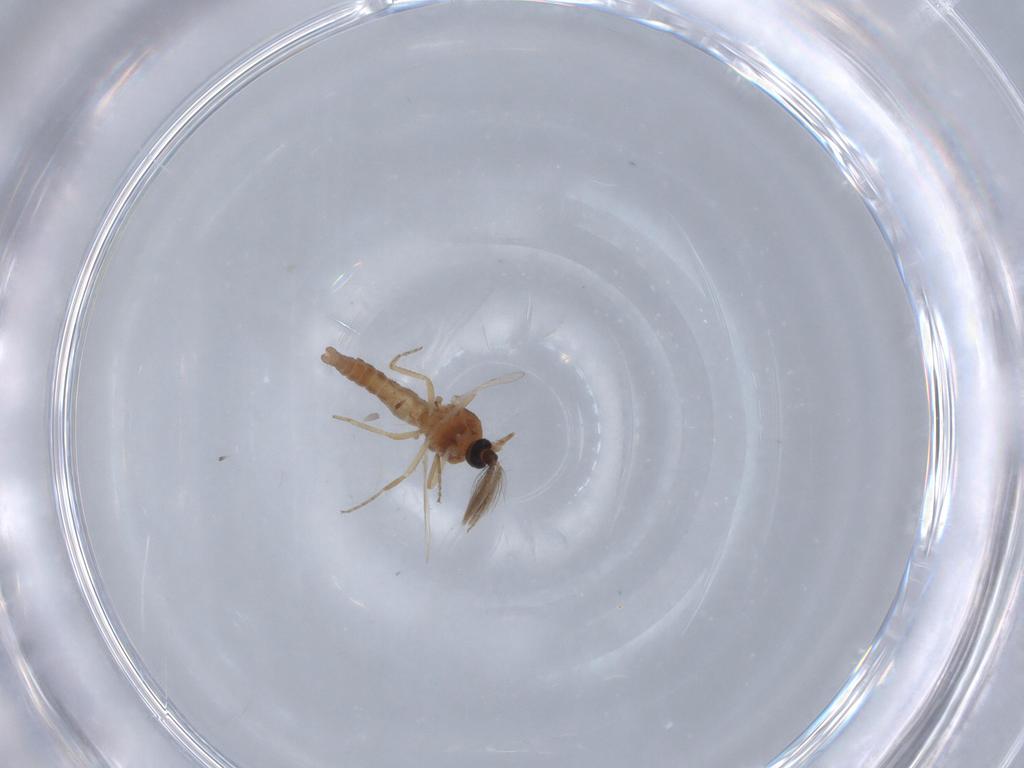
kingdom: Animalia
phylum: Arthropoda
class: Insecta
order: Diptera
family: Ceratopogonidae
